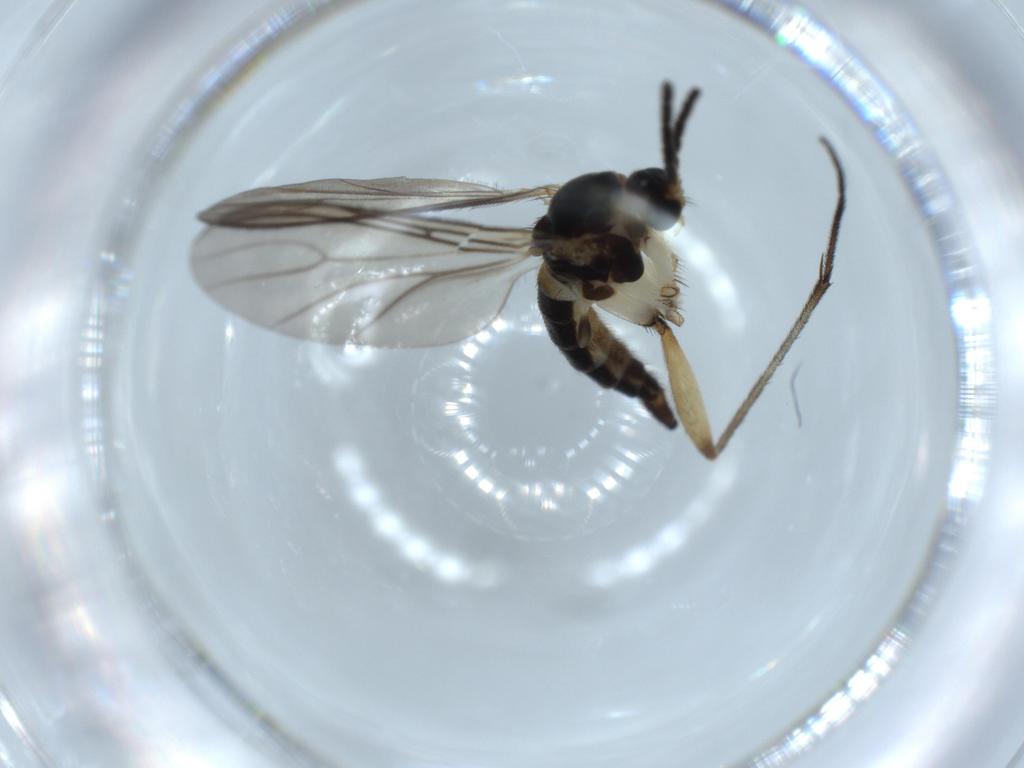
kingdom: Animalia
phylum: Arthropoda
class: Insecta
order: Diptera
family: Sciaridae
